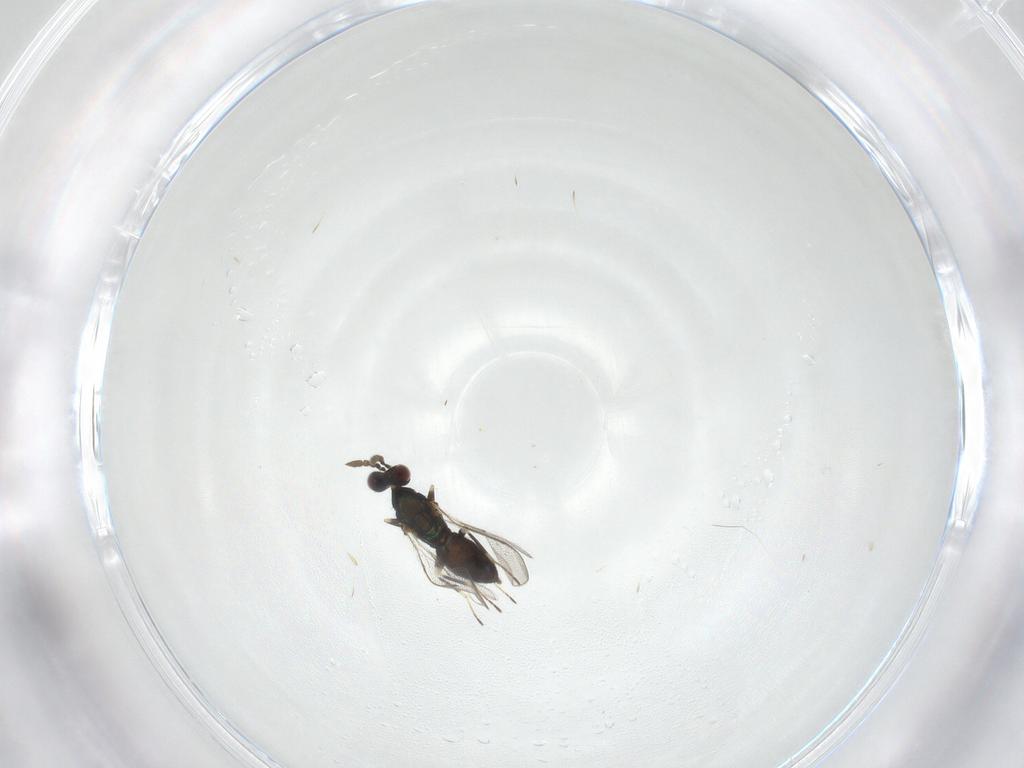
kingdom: Animalia
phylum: Arthropoda
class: Insecta
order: Hymenoptera
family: Eulophidae
